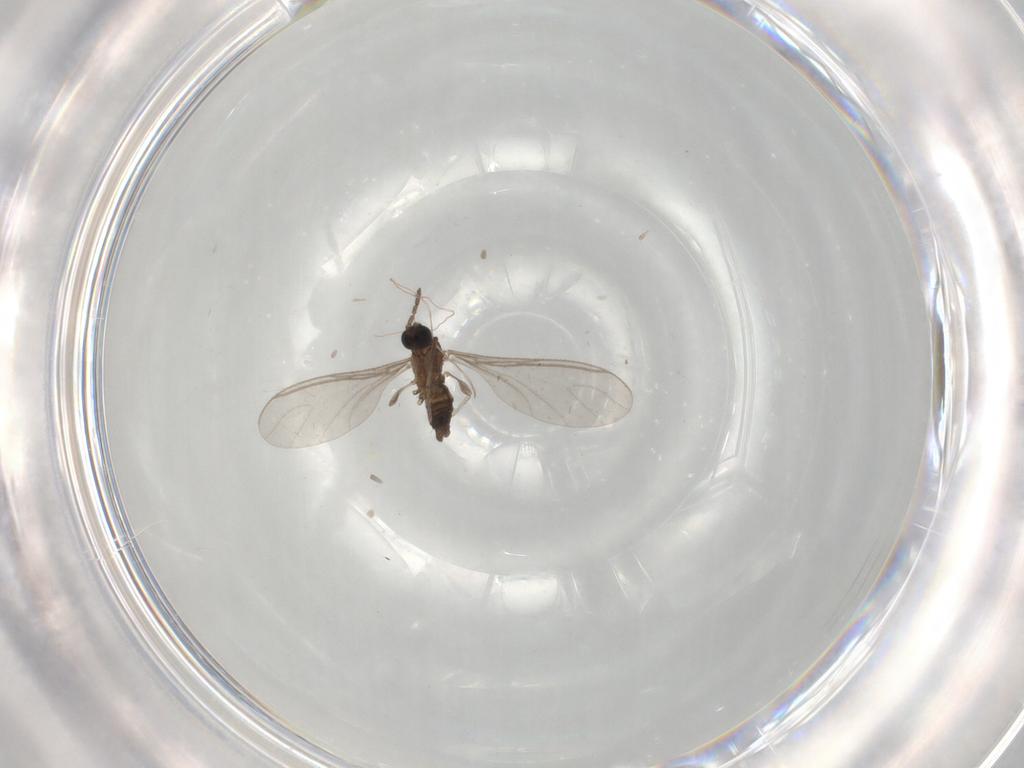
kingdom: Animalia
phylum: Arthropoda
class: Insecta
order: Diptera
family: Sciaridae
